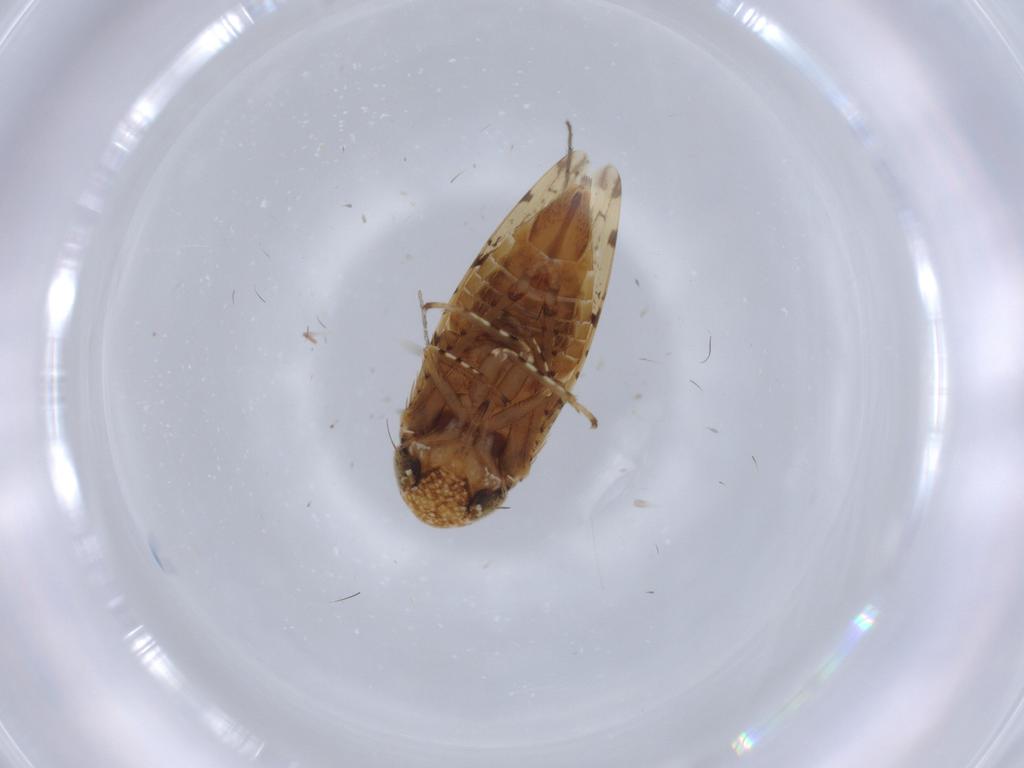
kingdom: Animalia
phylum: Arthropoda
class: Insecta
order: Hemiptera
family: Cicadellidae
